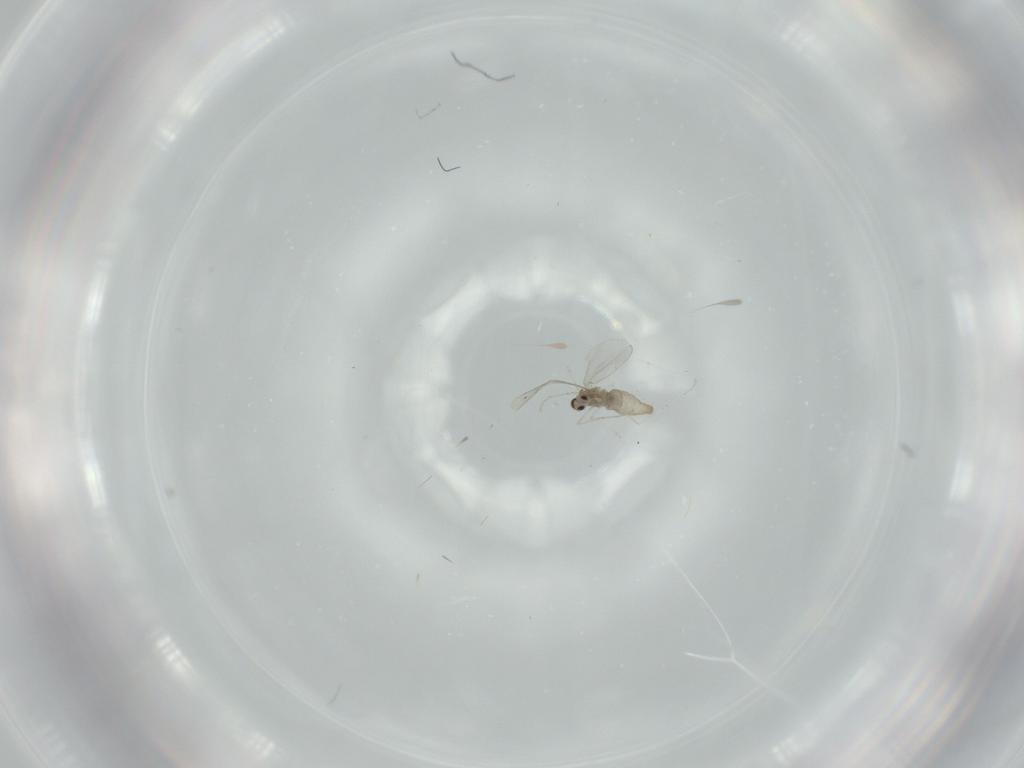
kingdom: Animalia
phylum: Arthropoda
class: Insecta
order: Diptera
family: Cecidomyiidae
